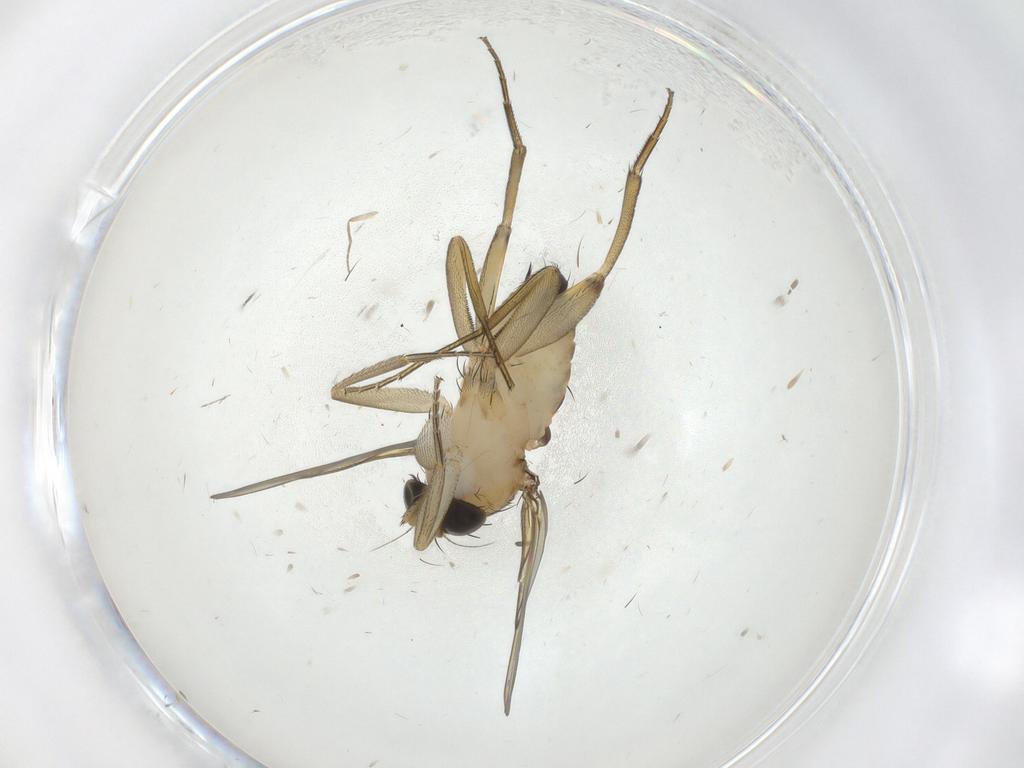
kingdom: Animalia
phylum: Arthropoda
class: Insecta
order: Diptera
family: Phoridae
